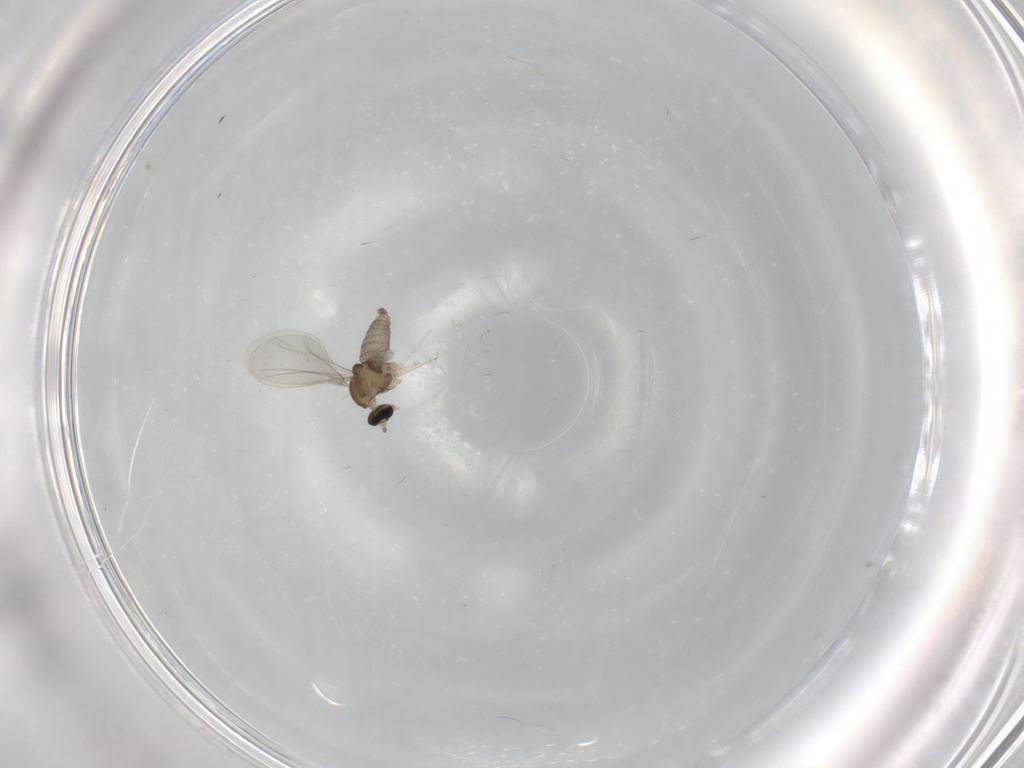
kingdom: Animalia
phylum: Arthropoda
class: Insecta
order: Diptera
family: Cecidomyiidae
